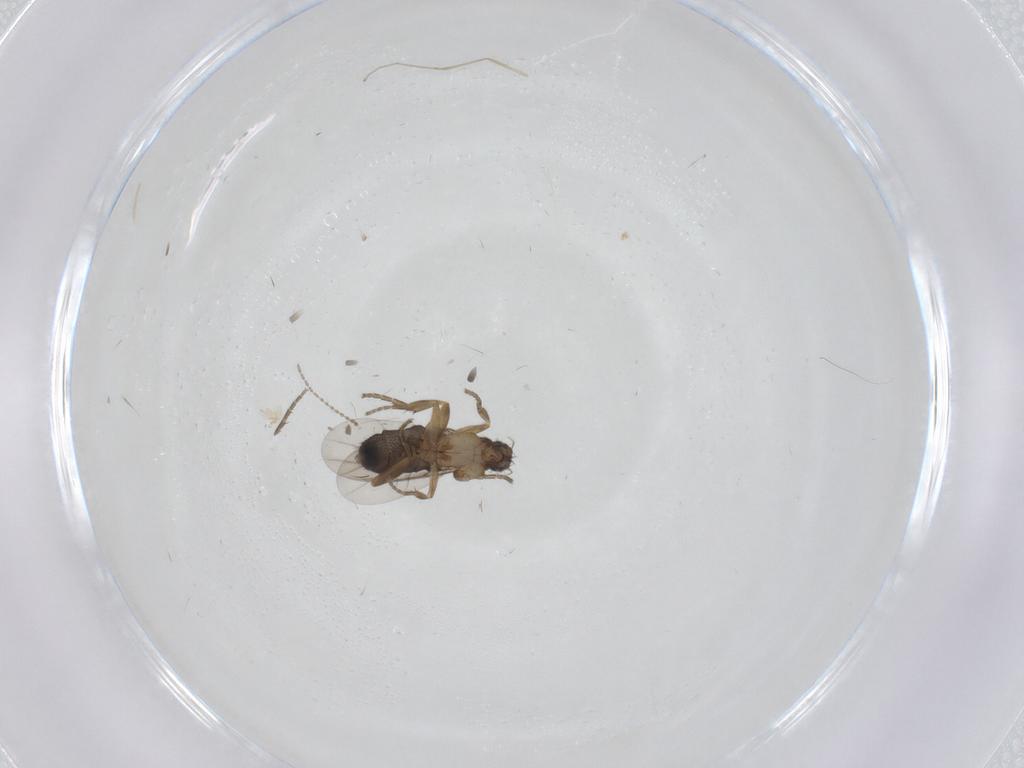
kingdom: Animalia
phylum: Arthropoda
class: Insecta
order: Diptera
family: Phoridae
